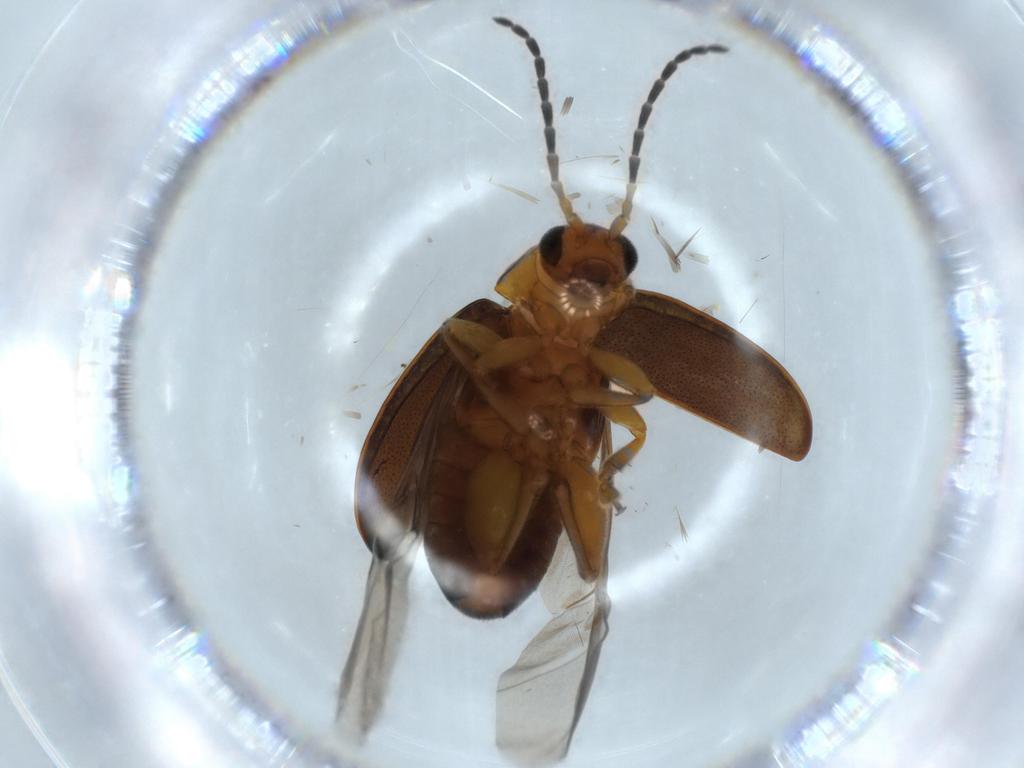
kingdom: Animalia
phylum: Arthropoda
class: Insecta
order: Coleoptera
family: Chrysomelidae
